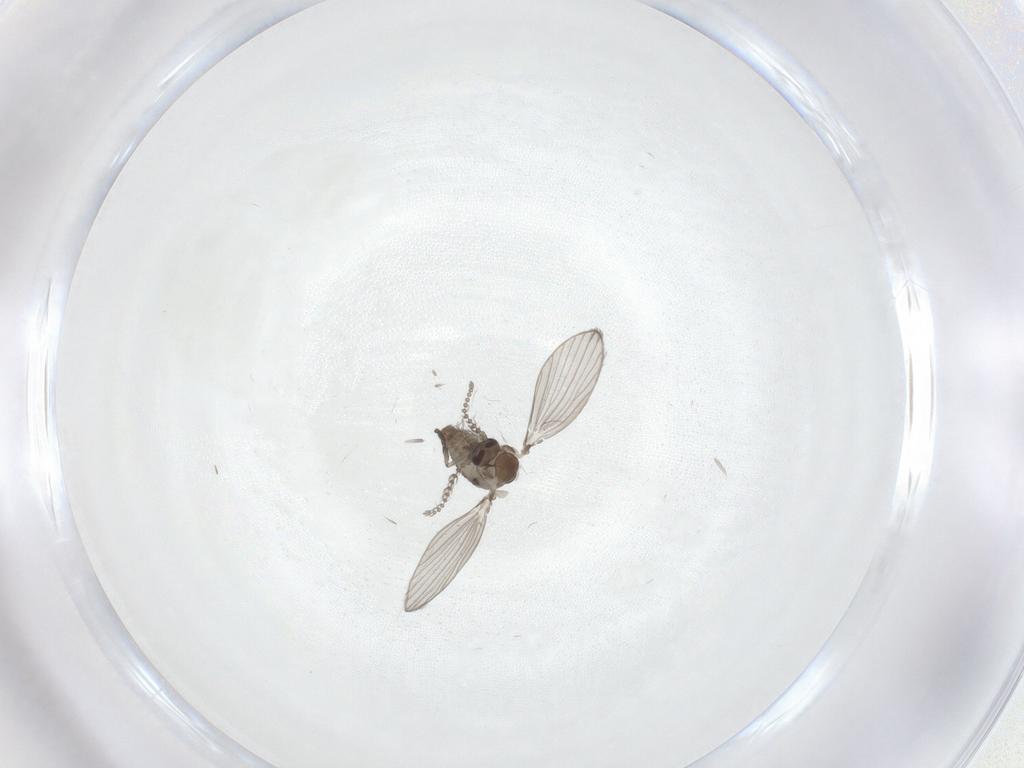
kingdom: Animalia
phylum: Arthropoda
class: Insecta
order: Diptera
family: Psychodidae
